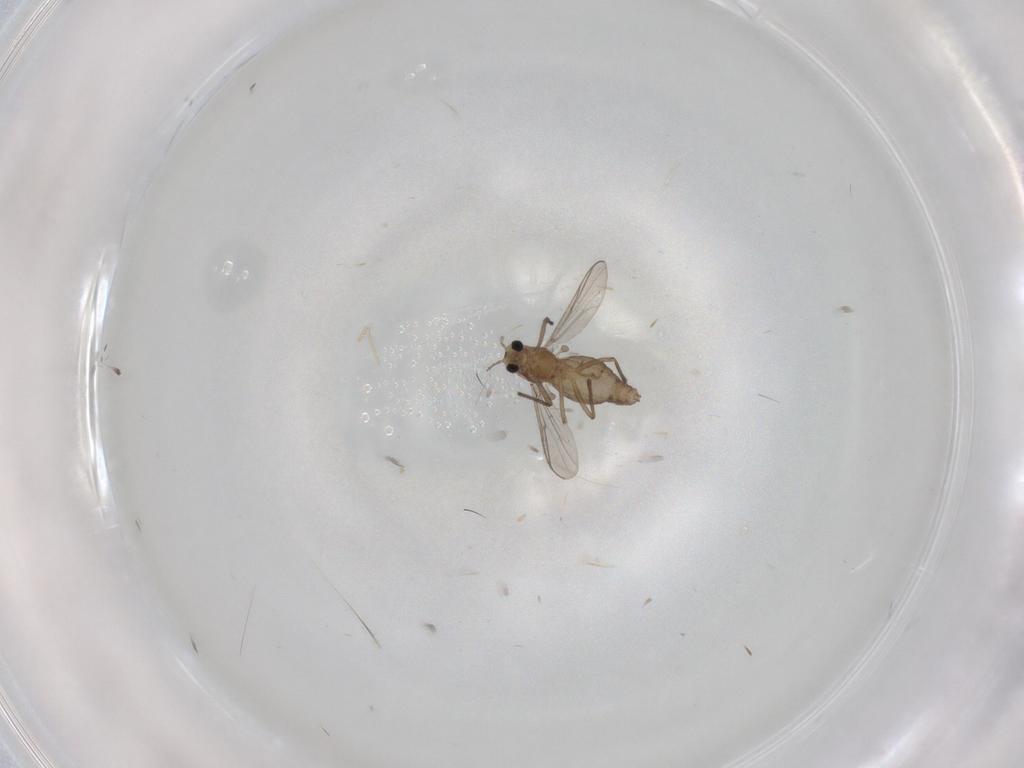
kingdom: Animalia
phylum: Arthropoda
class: Insecta
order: Diptera
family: Chironomidae
